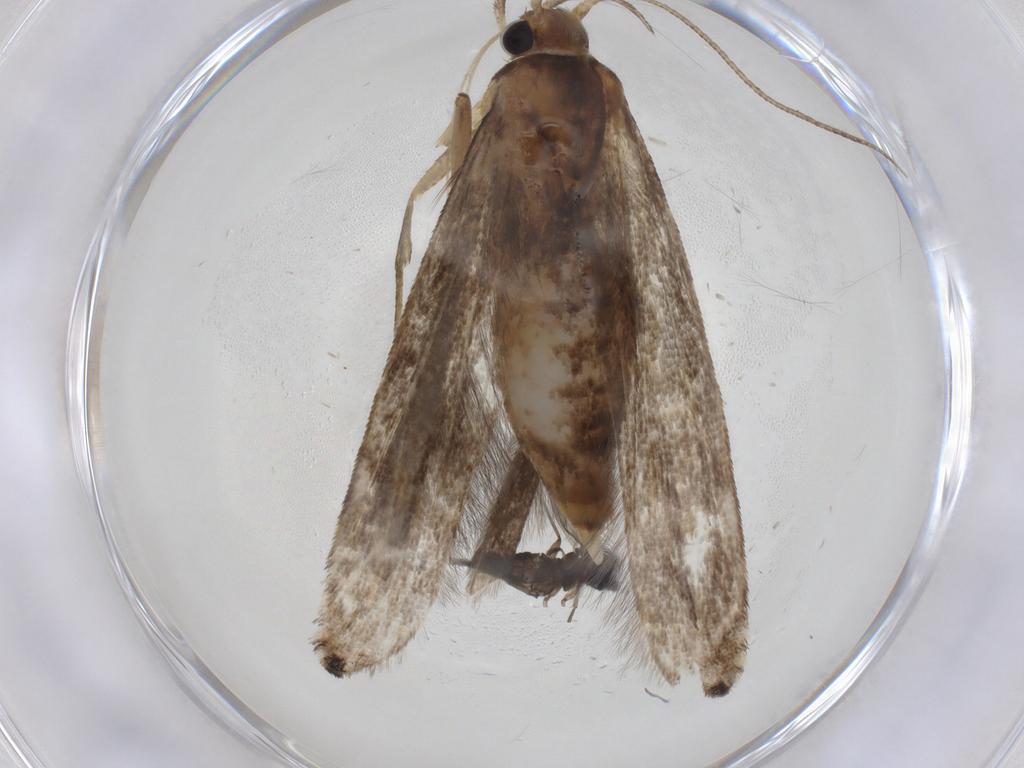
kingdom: Animalia
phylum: Arthropoda
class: Insecta
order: Lepidoptera
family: Gelechiidae
